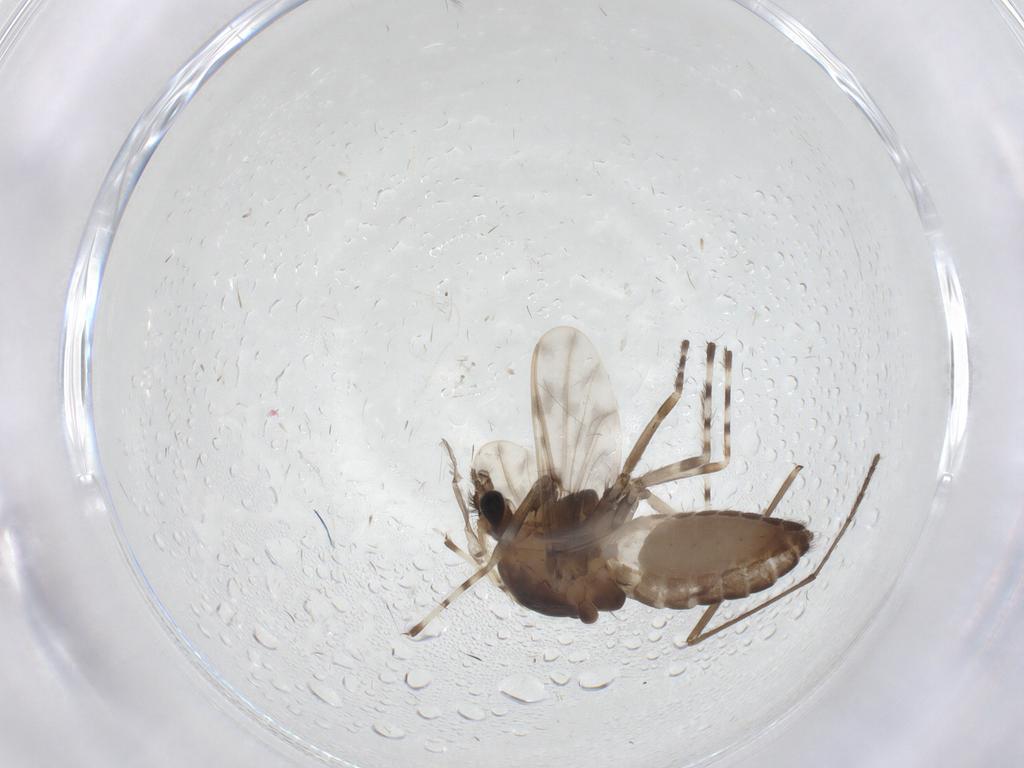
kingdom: Animalia
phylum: Arthropoda
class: Insecta
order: Diptera
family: Chironomidae
